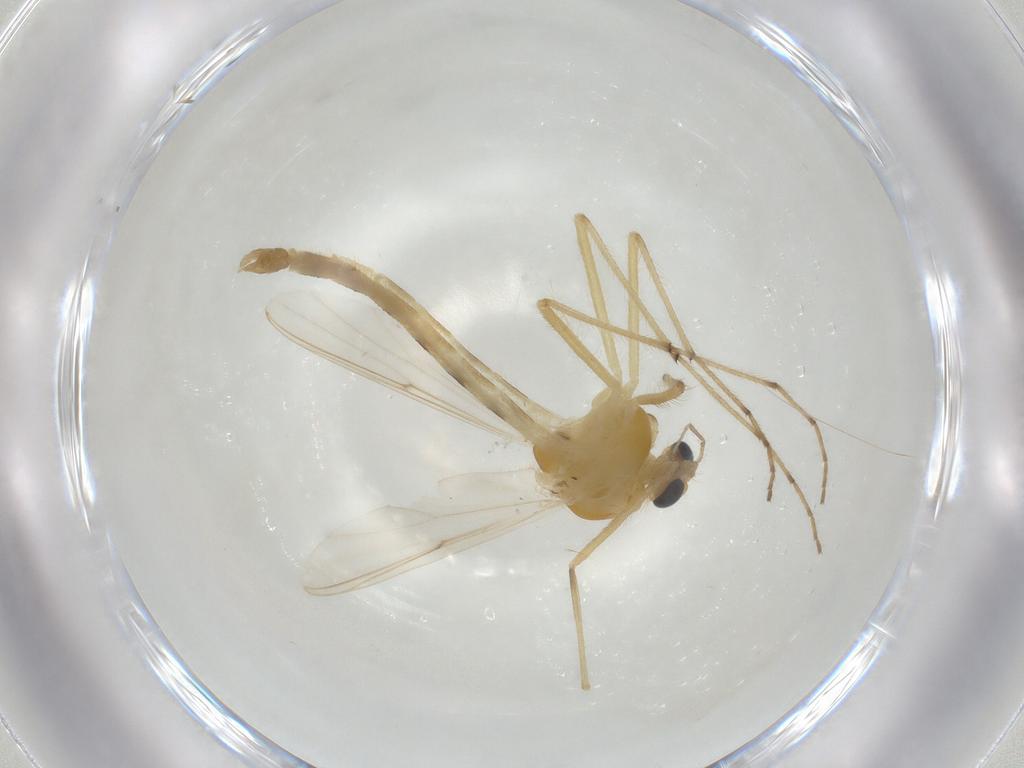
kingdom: Animalia
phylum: Arthropoda
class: Insecta
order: Diptera
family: Chironomidae
